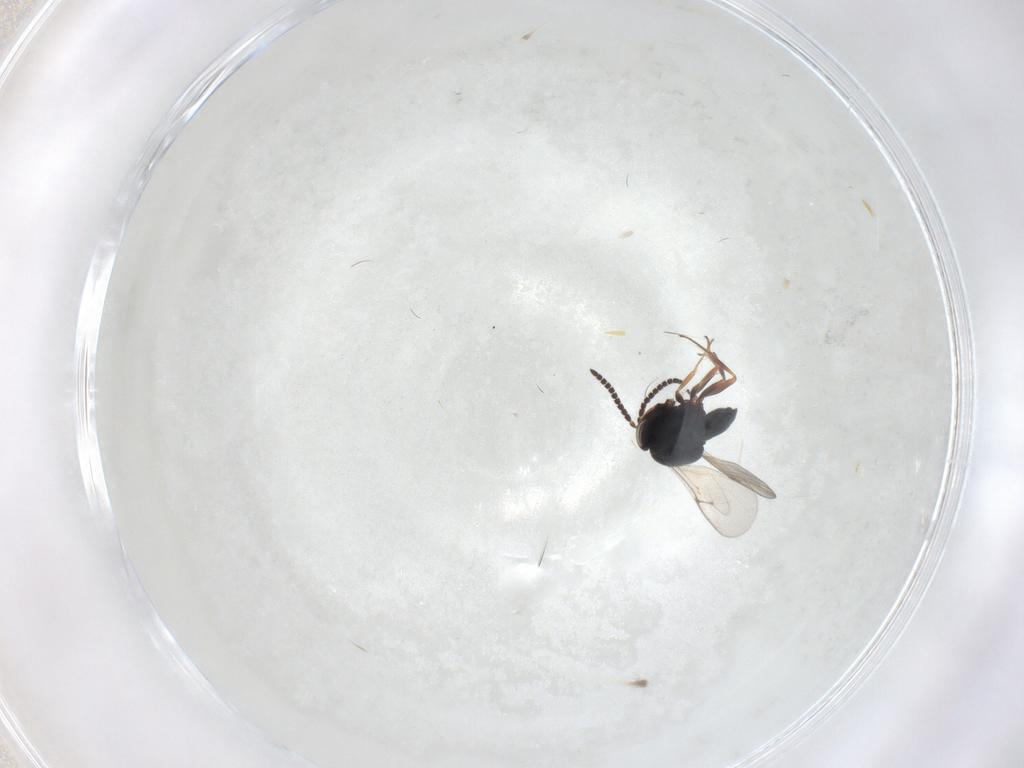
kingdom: Animalia
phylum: Arthropoda
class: Insecta
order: Hymenoptera
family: Scelionidae
